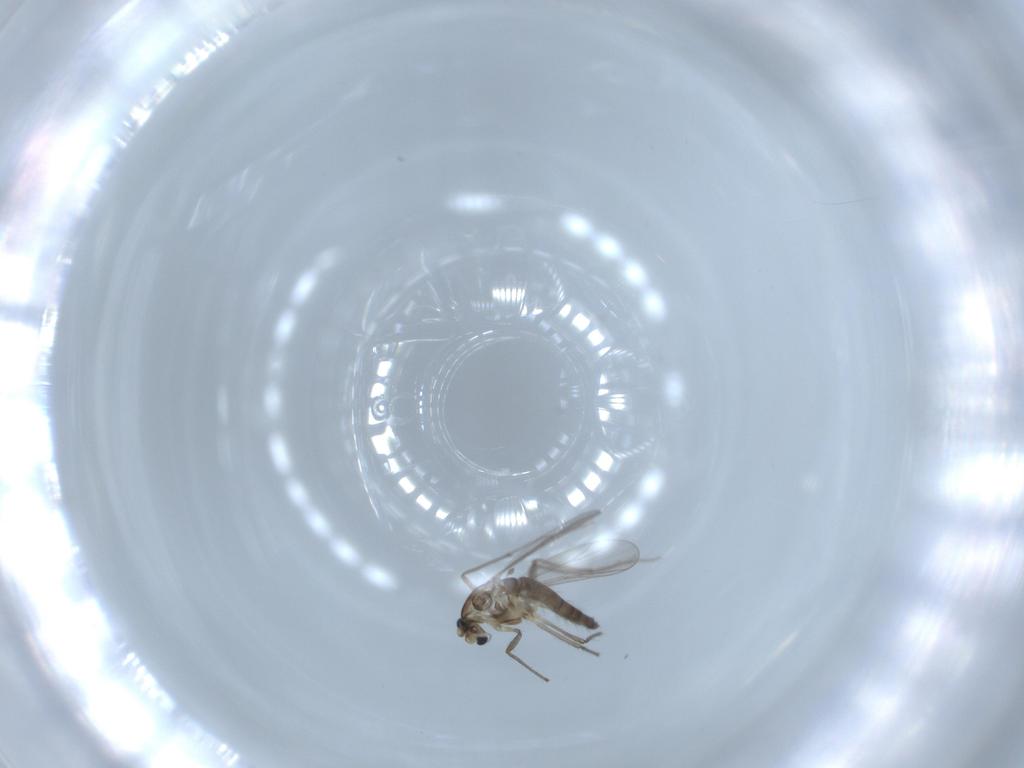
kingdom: Animalia
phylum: Arthropoda
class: Insecta
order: Diptera
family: Chironomidae
